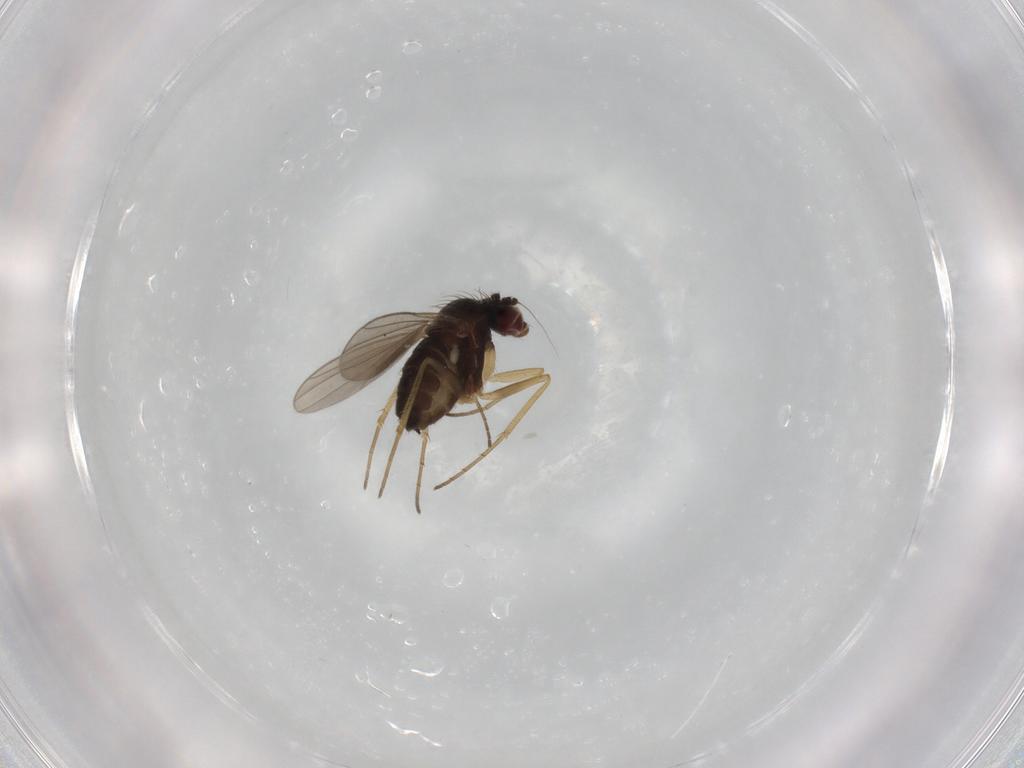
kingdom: Animalia
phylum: Arthropoda
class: Insecta
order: Diptera
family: Dolichopodidae
